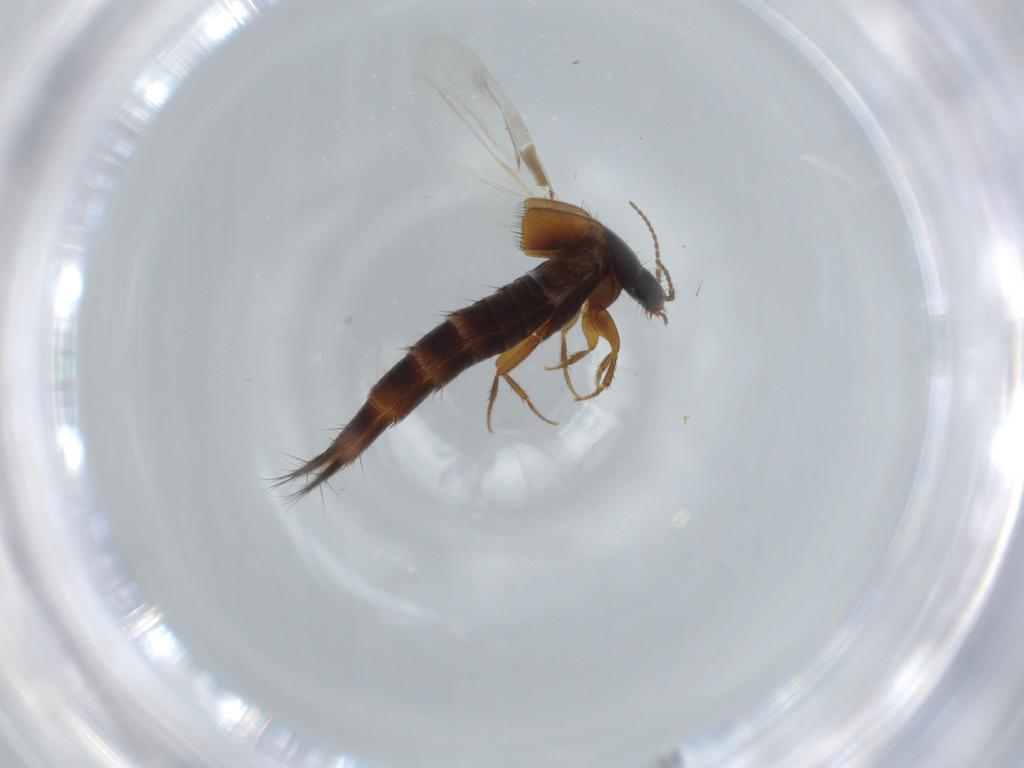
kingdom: Animalia
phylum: Arthropoda
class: Insecta
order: Coleoptera
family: Staphylinidae
